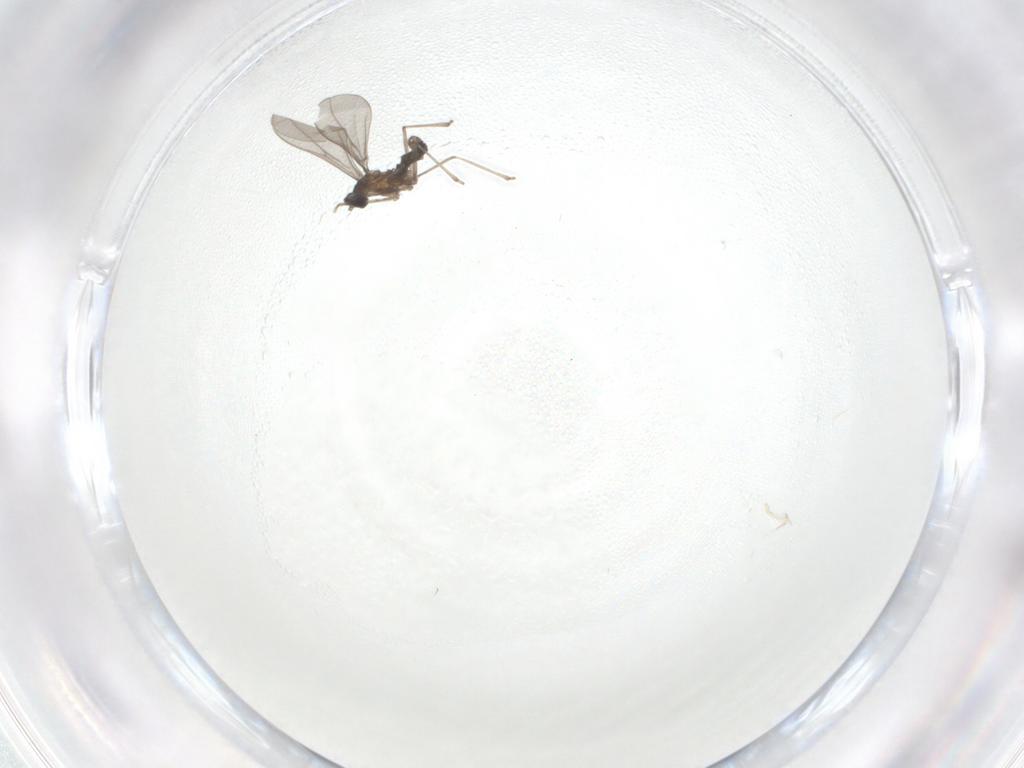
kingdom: Animalia
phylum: Arthropoda
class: Insecta
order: Diptera
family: Cecidomyiidae
